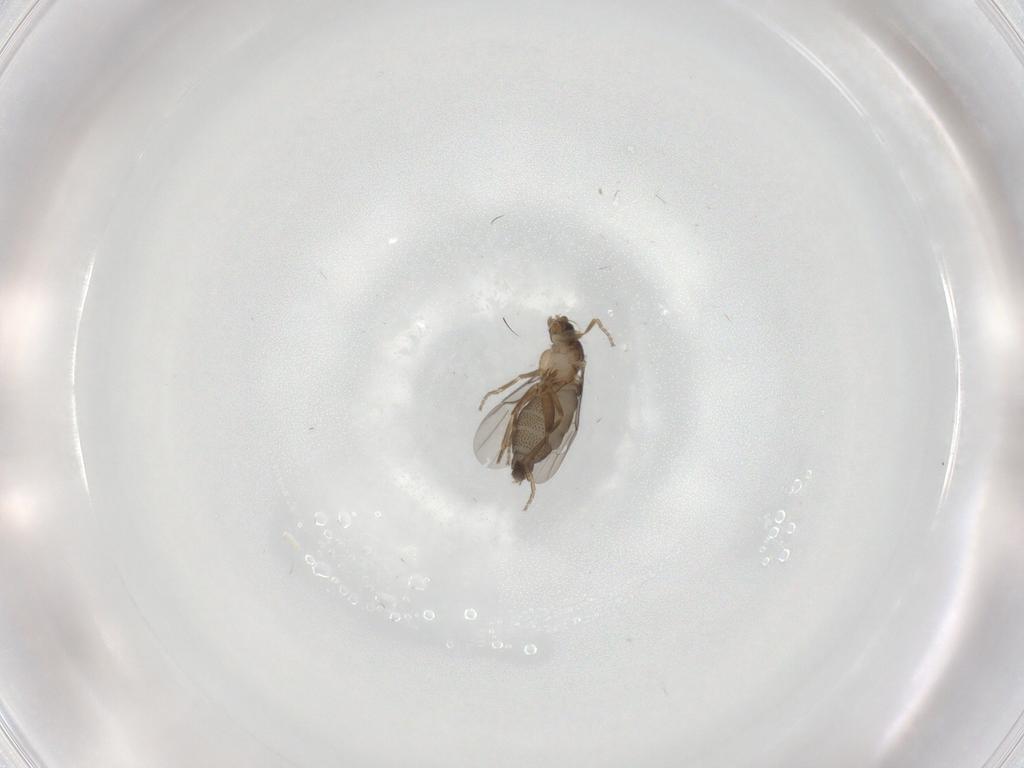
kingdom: Animalia
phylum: Arthropoda
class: Insecta
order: Diptera
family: Phoridae
